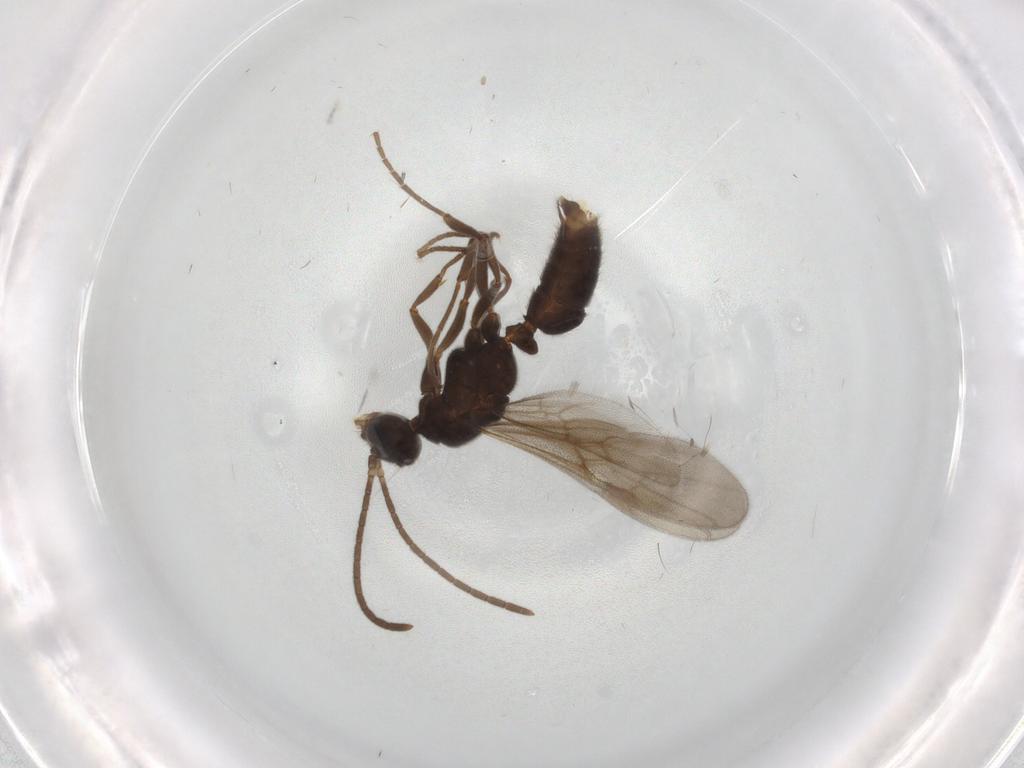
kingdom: Animalia
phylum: Arthropoda
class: Insecta
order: Hymenoptera
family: Formicidae
